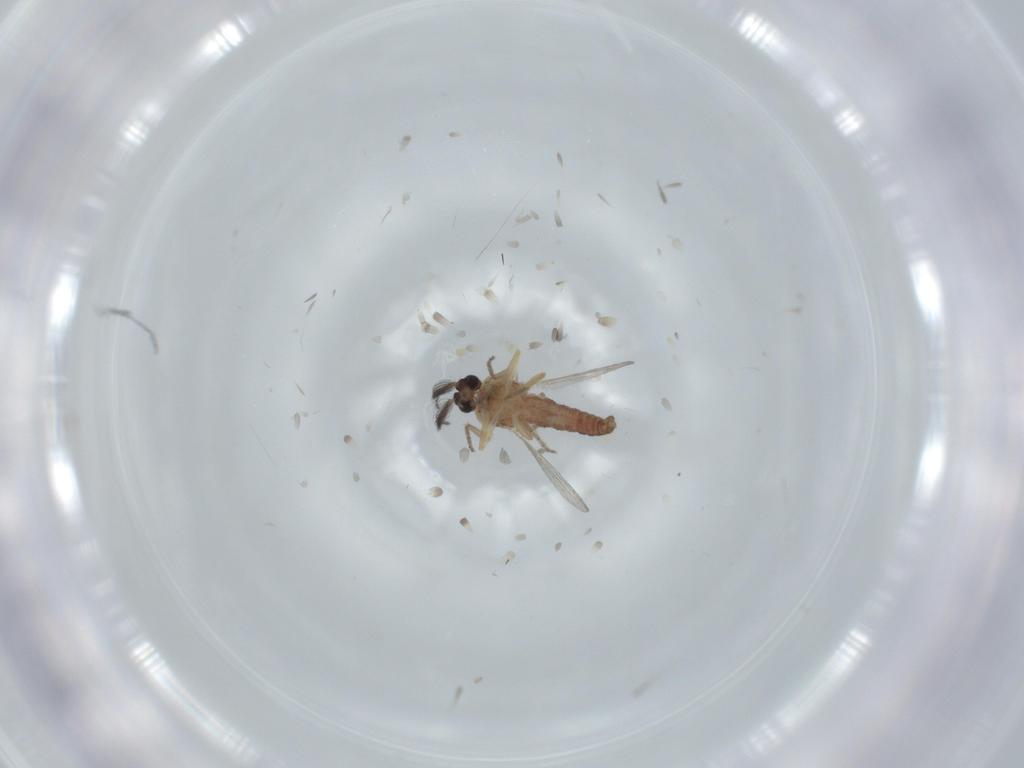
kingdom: Animalia
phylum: Arthropoda
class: Insecta
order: Diptera
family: Ceratopogonidae
